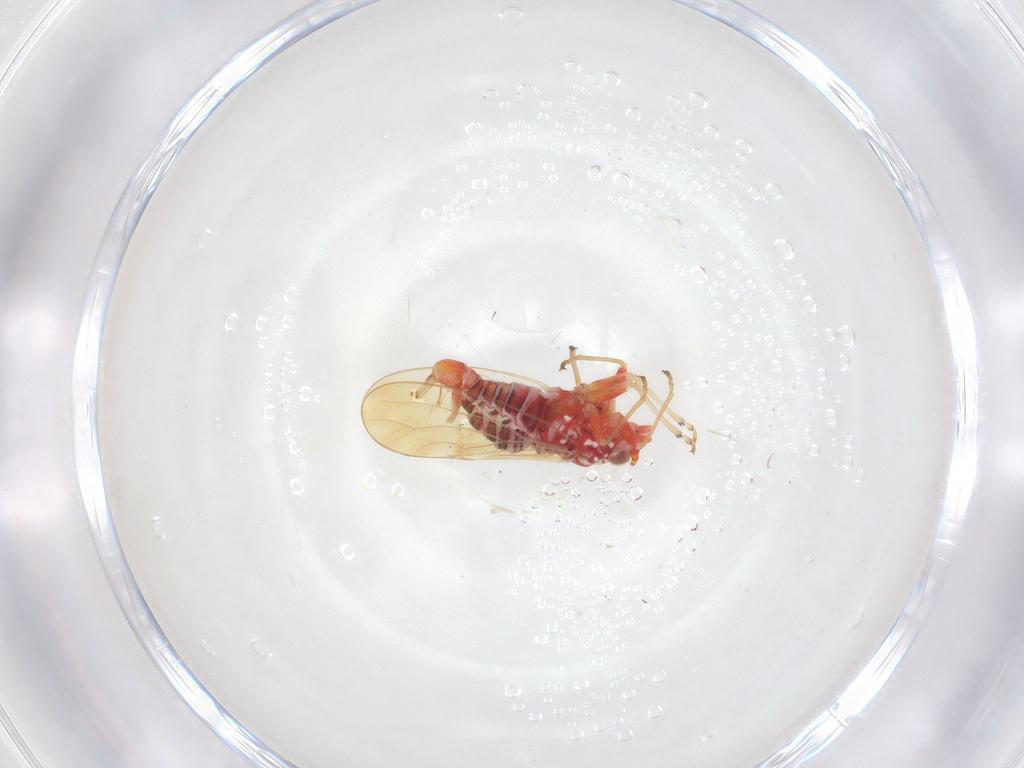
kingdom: Animalia
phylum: Arthropoda
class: Insecta
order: Hemiptera
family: Psyllidae
